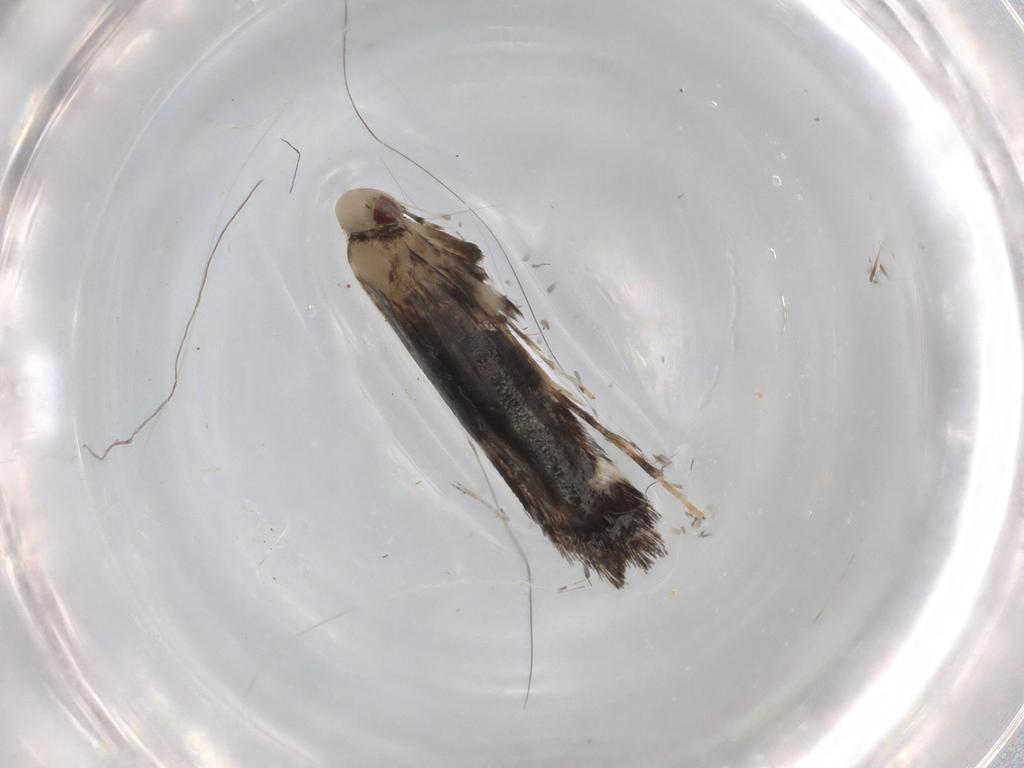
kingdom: Animalia
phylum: Arthropoda
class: Insecta
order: Lepidoptera
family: Gracillariidae
